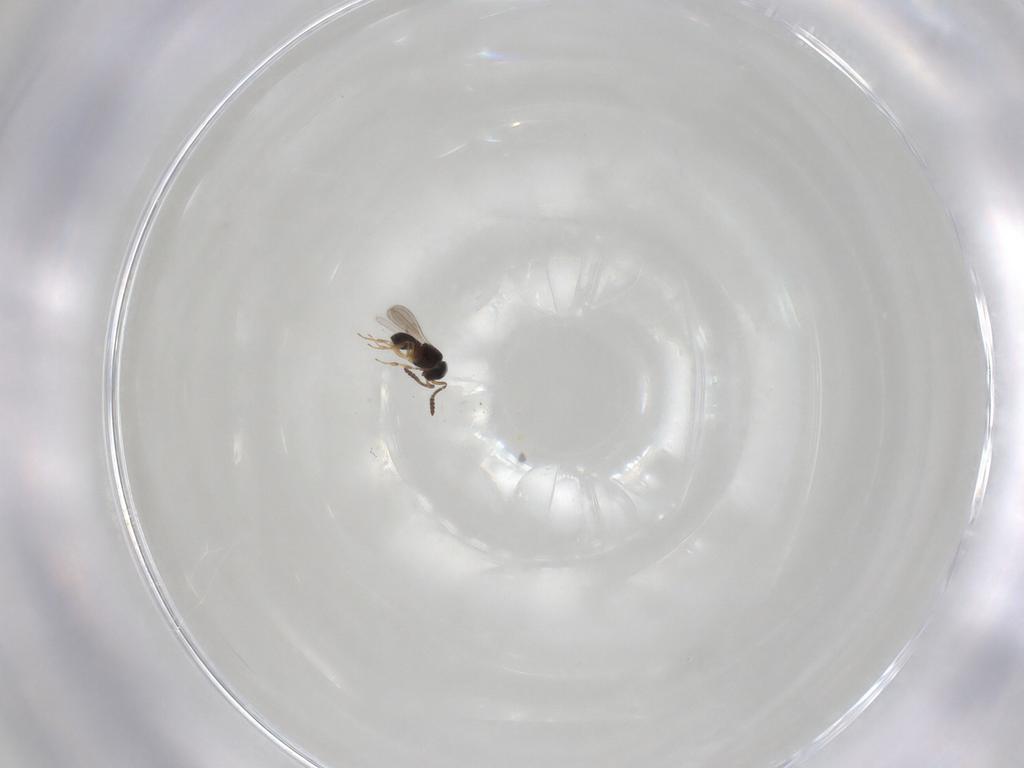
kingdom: Animalia
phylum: Arthropoda
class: Insecta
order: Hymenoptera
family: Scelionidae
